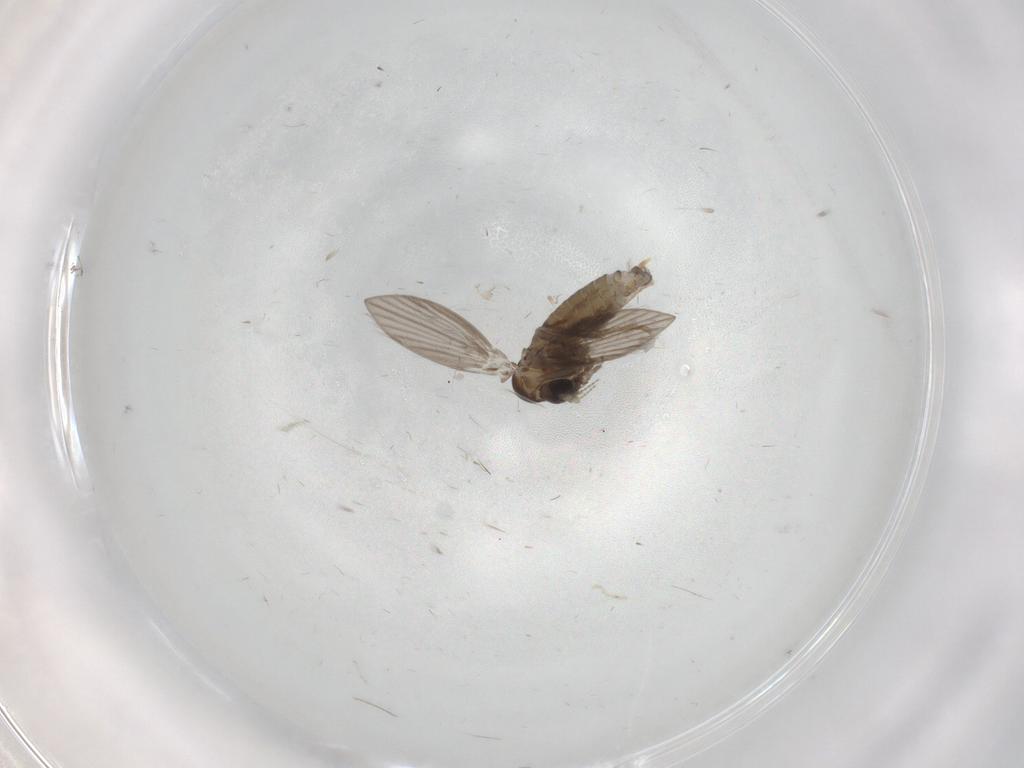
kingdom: Animalia
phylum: Arthropoda
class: Insecta
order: Diptera
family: Psychodidae
